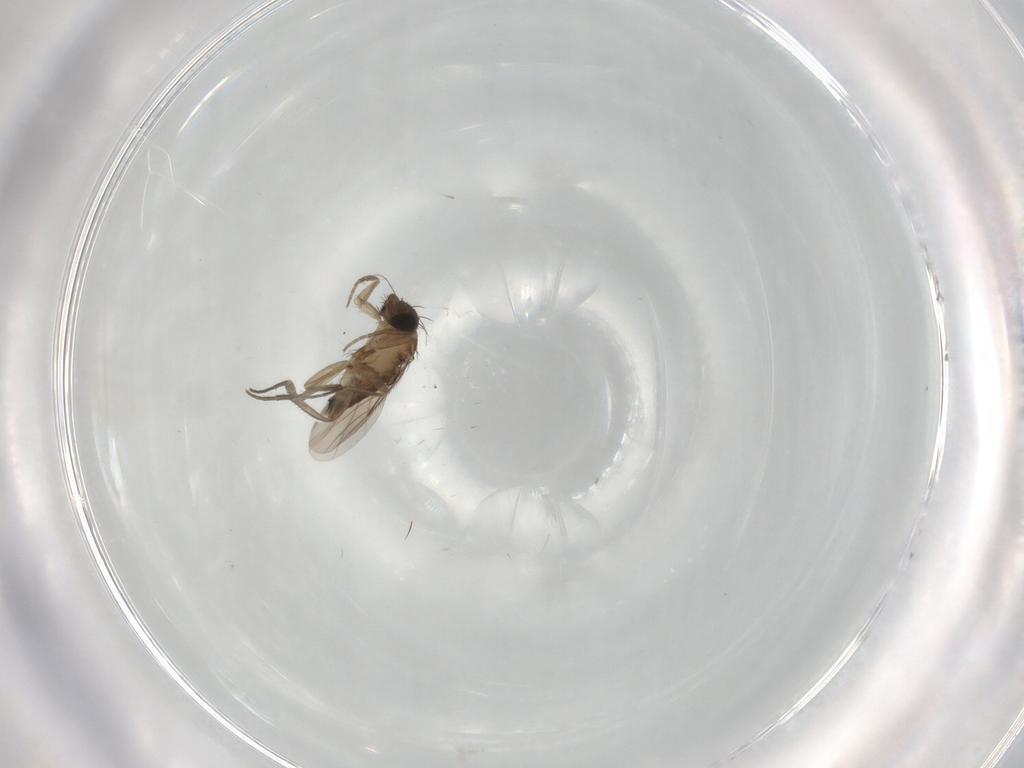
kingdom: Animalia
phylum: Arthropoda
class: Insecta
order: Diptera
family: Phoridae
